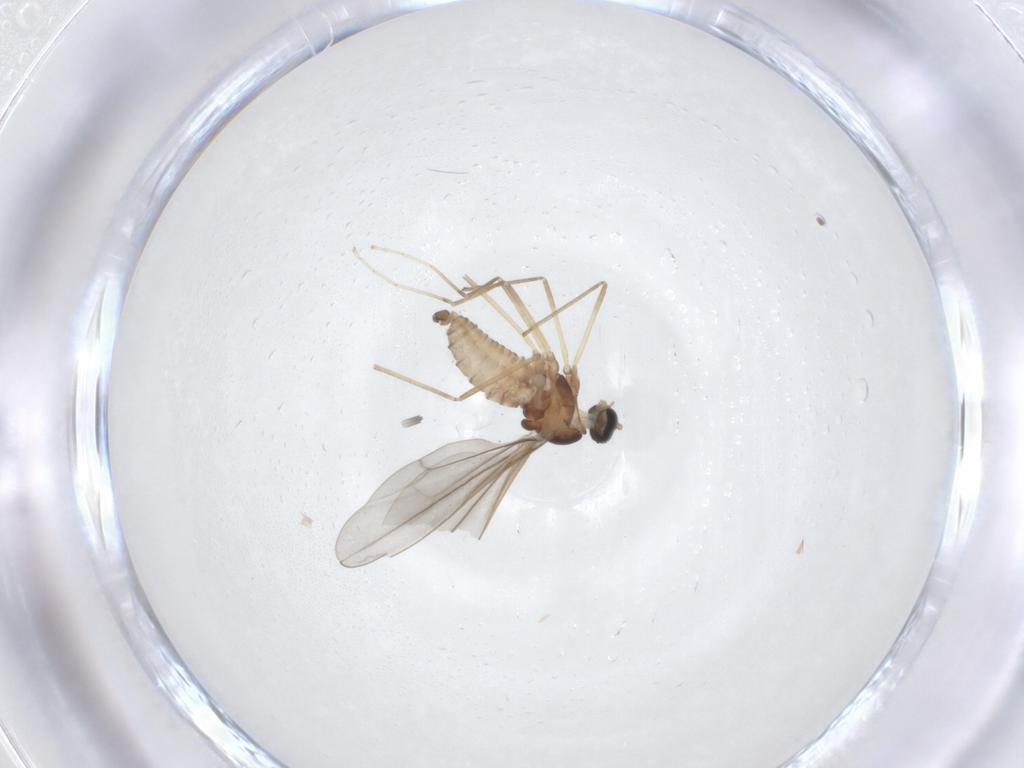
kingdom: Animalia
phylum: Arthropoda
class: Insecta
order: Diptera
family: Cecidomyiidae
